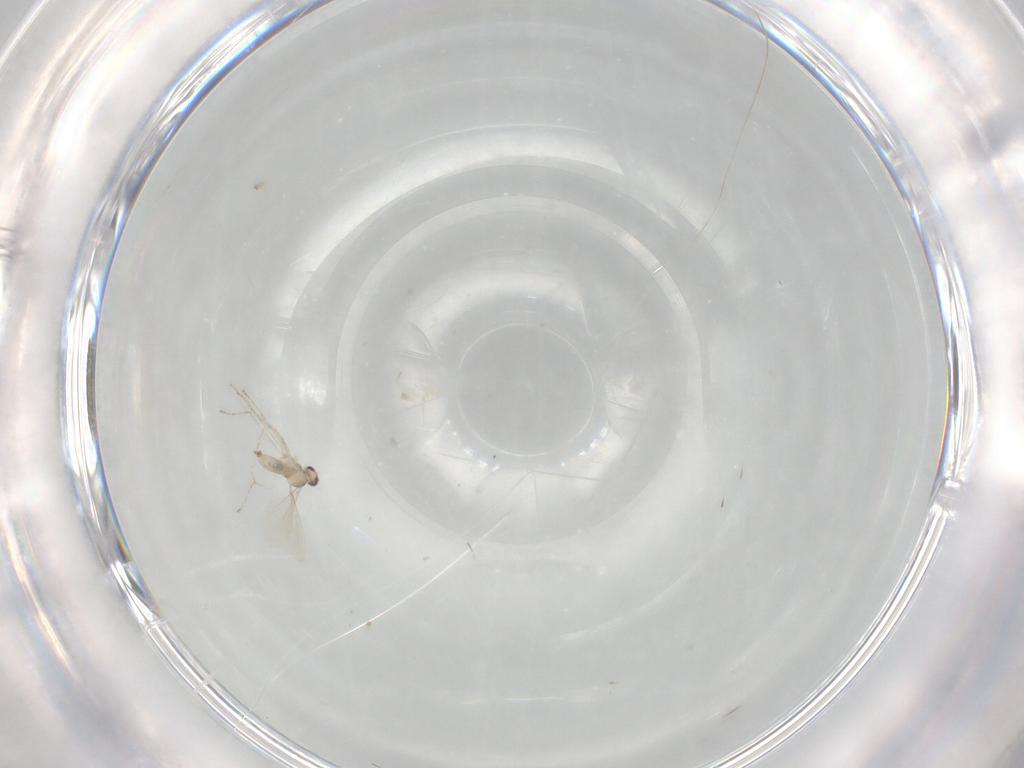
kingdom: Animalia
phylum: Arthropoda
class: Insecta
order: Diptera
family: Cecidomyiidae
